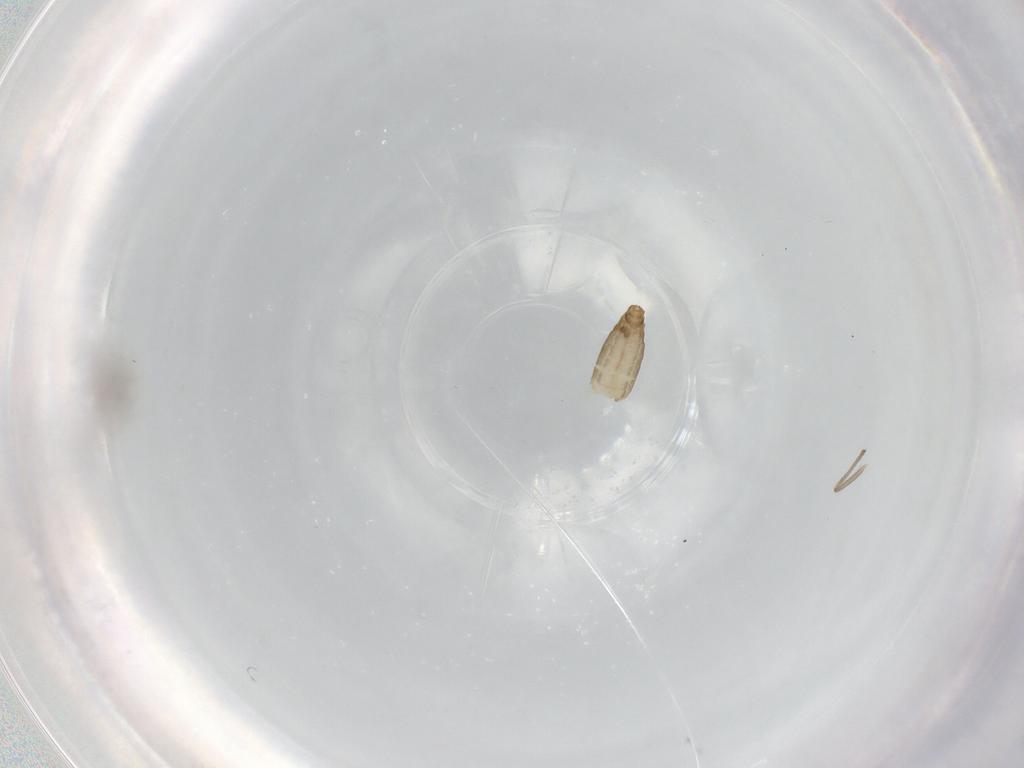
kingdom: Animalia
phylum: Arthropoda
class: Insecta
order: Diptera
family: Chironomidae
